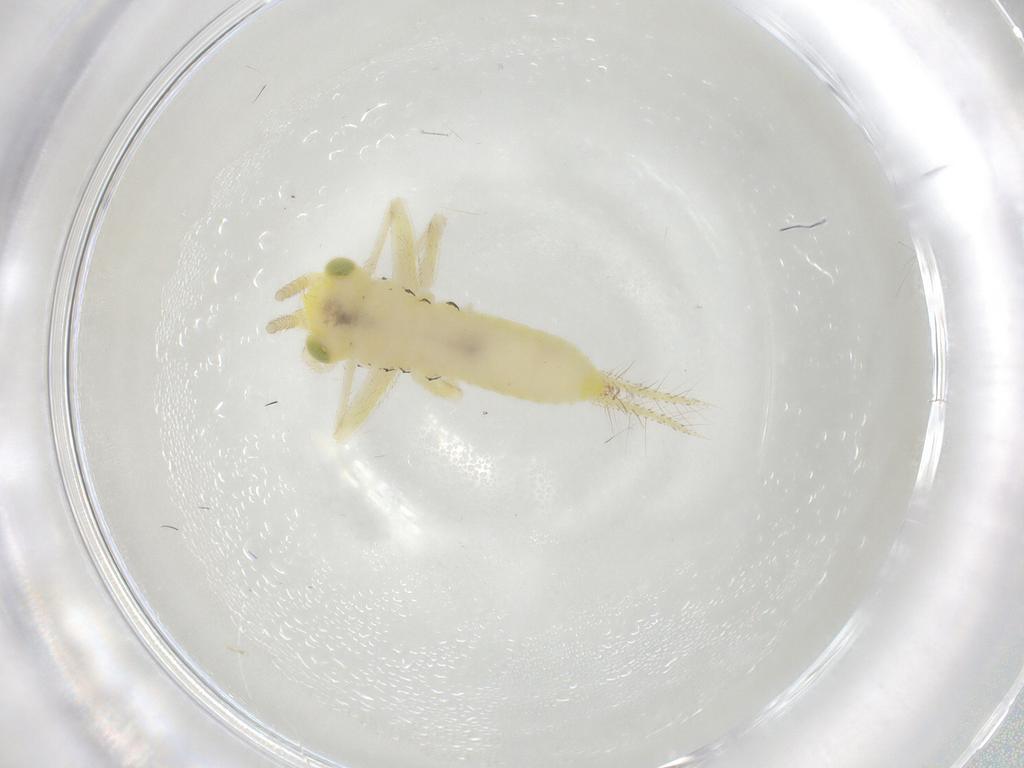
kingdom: Animalia
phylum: Arthropoda
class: Insecta
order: Orthoptera
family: Trigonidiidae
